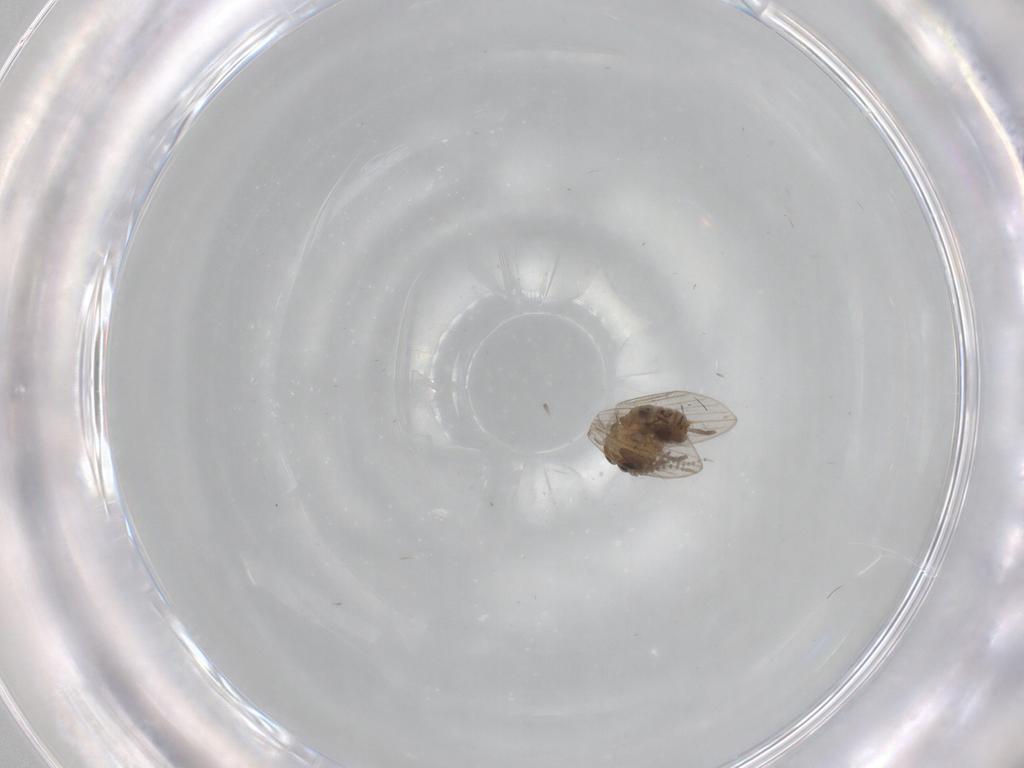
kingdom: Animalia
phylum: Arthropoda
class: Insecta
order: Diptera
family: Psychodidae
